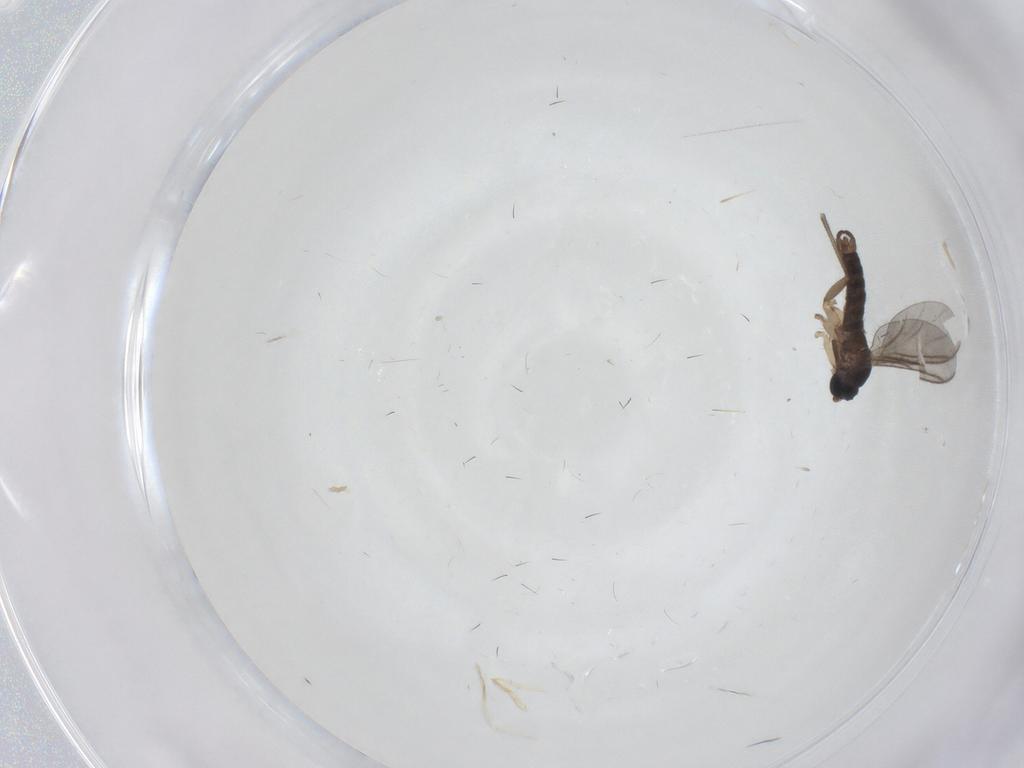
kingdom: Animalia
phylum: Arthropoda
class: Insecta
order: Diptera
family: Sciaridae
